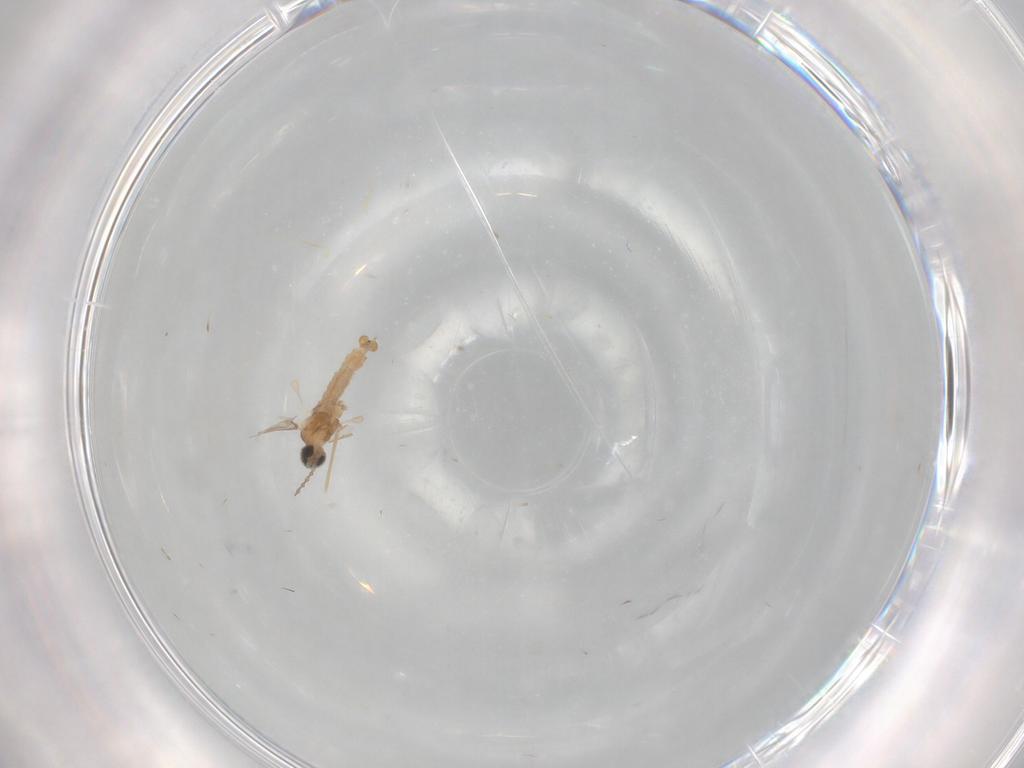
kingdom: Animalia
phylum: Arthropoda
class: Insecta
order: Diptera
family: Cecidomyiidae
